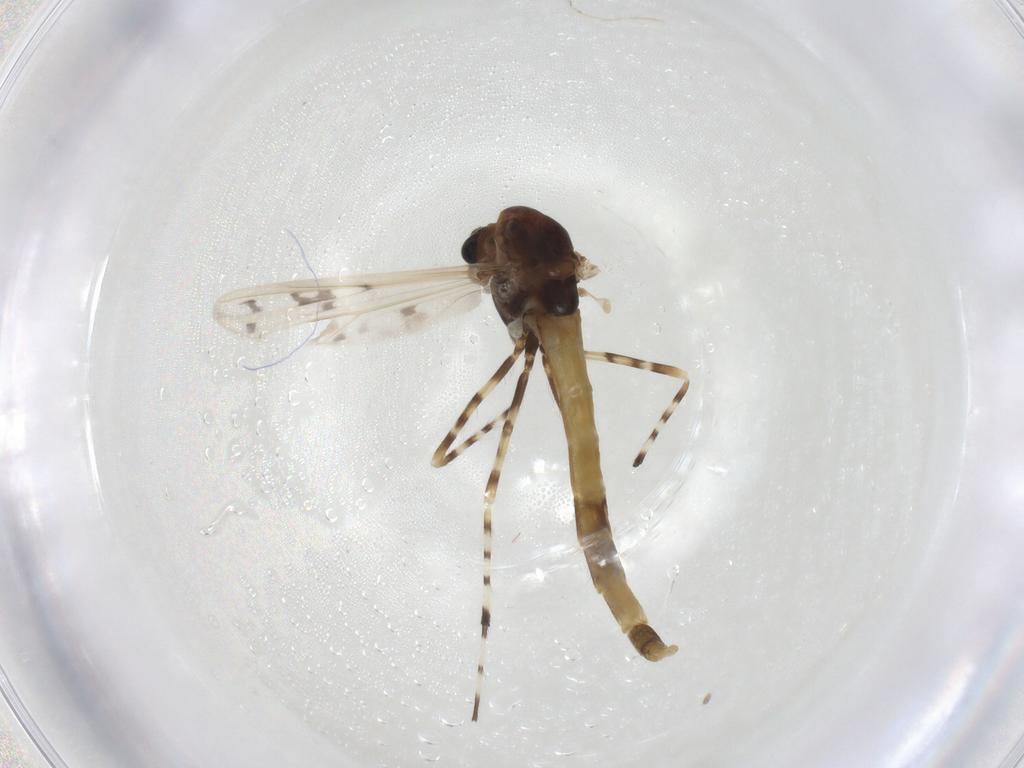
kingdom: Animalia
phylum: Arthropoda
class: Insecta
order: Diptera
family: Chironomidae
